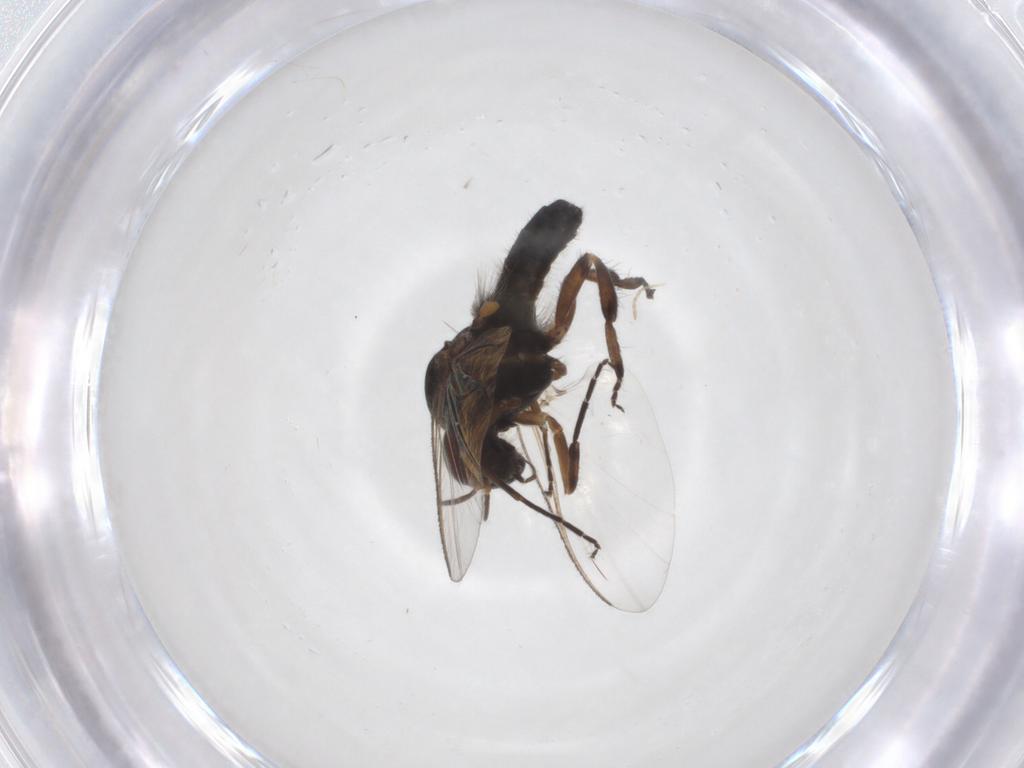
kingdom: Animalia
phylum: Arthropoda
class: Insecta
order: Diptera
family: Hybotidae
